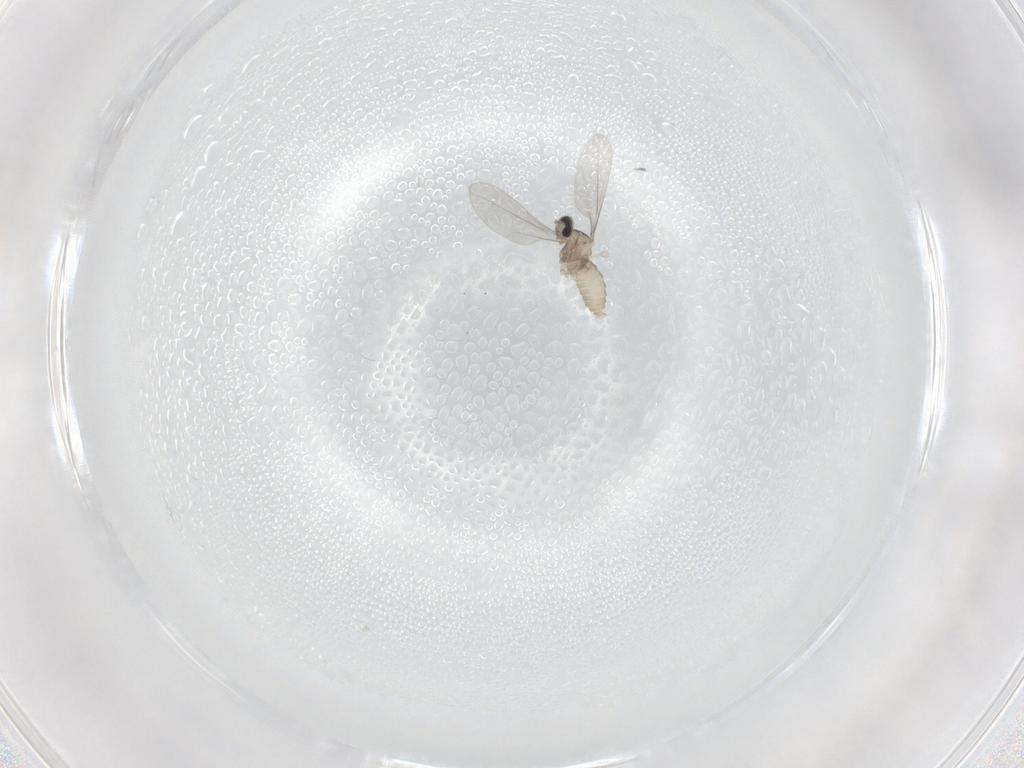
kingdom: Animalia
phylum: Arthropoda
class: Insecta
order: Diptera
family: Cecidomyiidae
